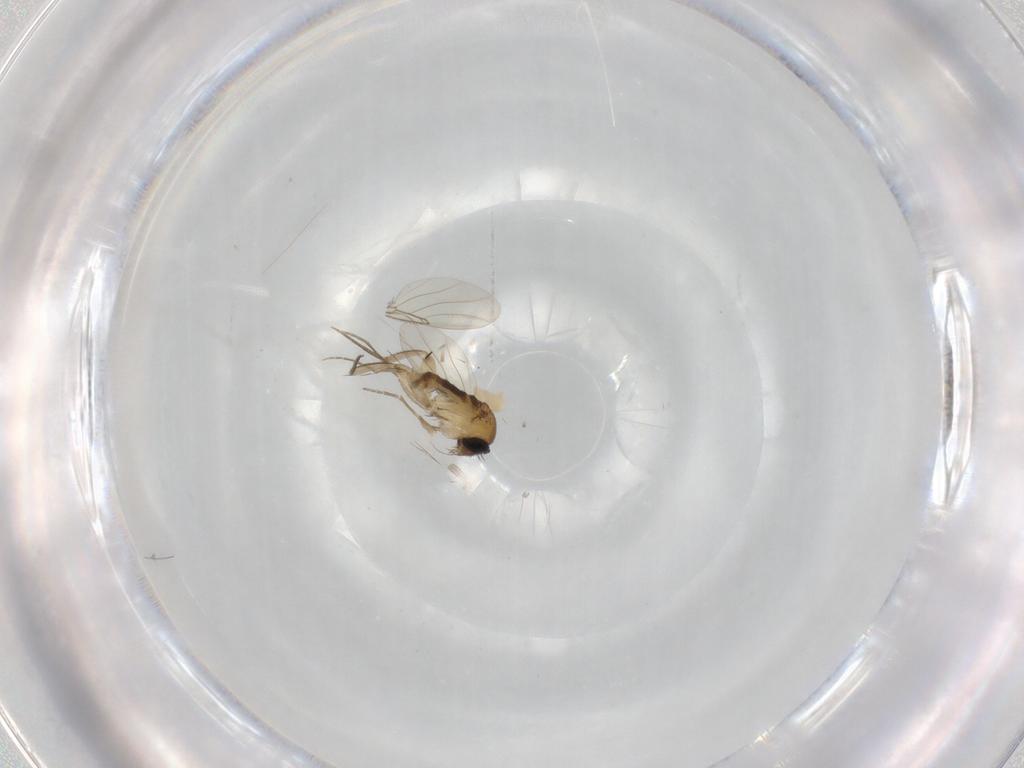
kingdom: Animalia
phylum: Arthropoda
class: Insecta
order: Diptera
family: Phoridae
